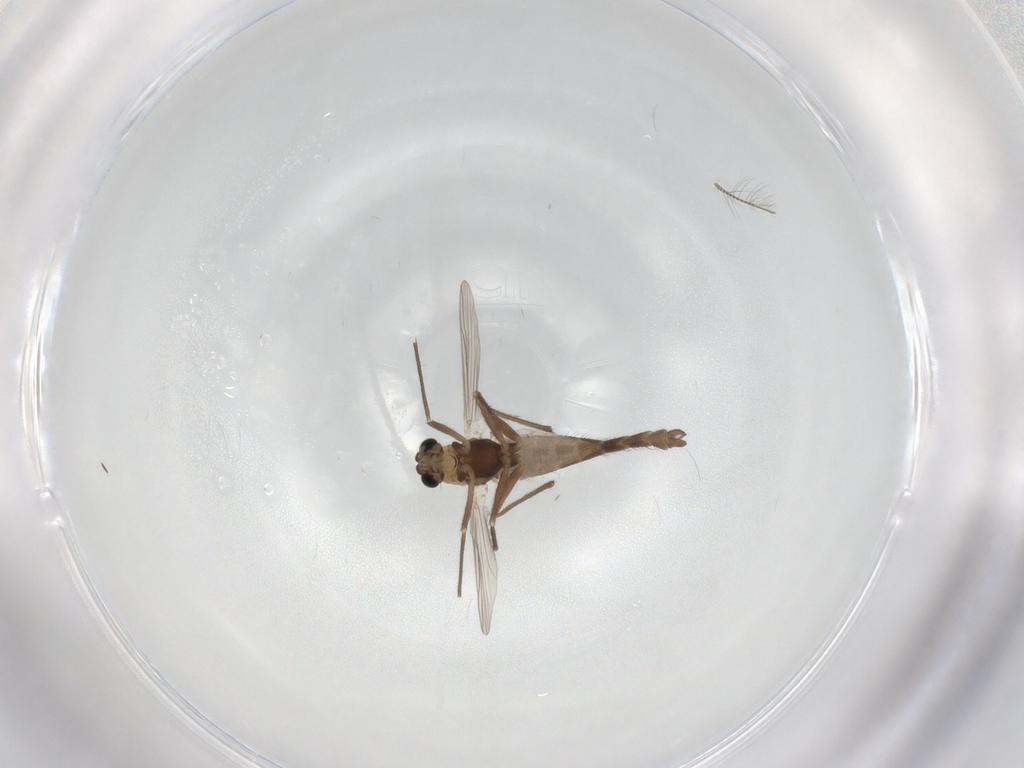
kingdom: Animalia
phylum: Arthropoda
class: Insecta
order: Diptera
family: Chironomidae
